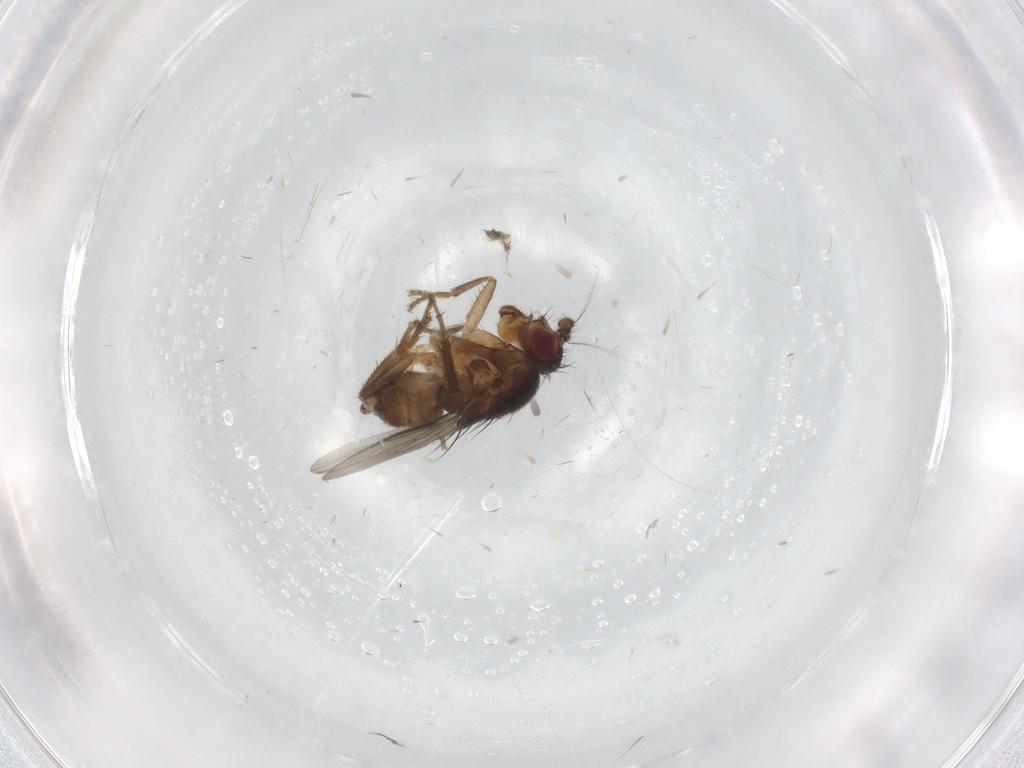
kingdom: Animalia
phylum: Arthropoda
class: Insecta
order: Diptera
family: Sphaeroceridae
